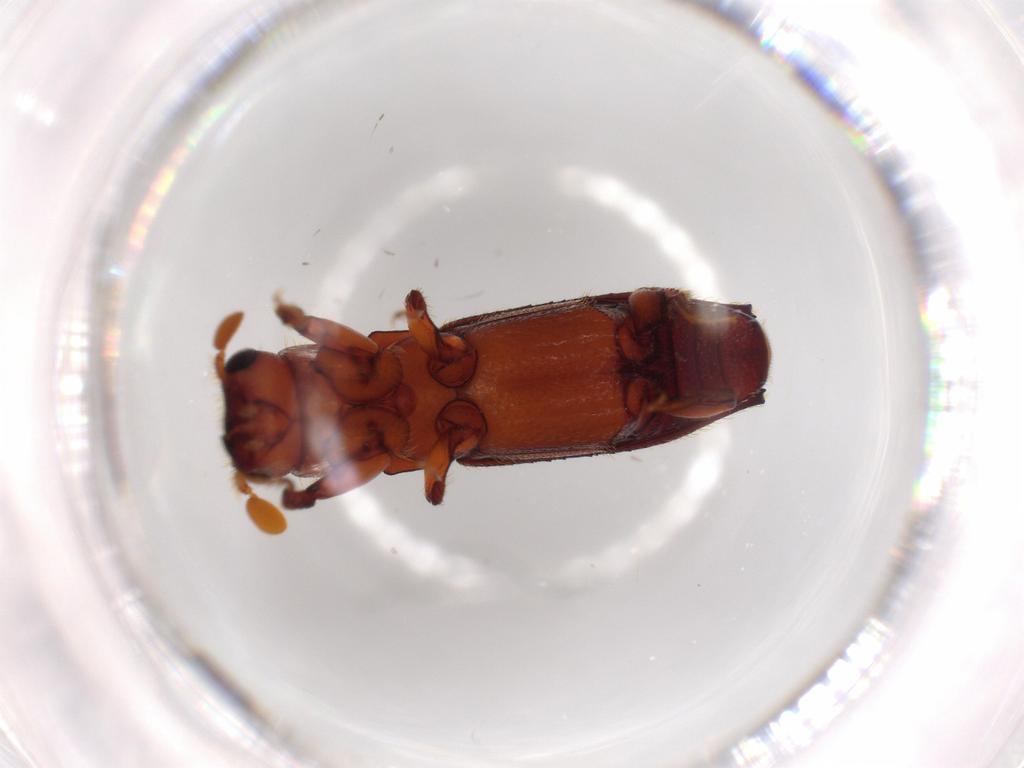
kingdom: Animalia
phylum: Arthropoda
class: Insecta
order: Coleoptera
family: Curculionidae
